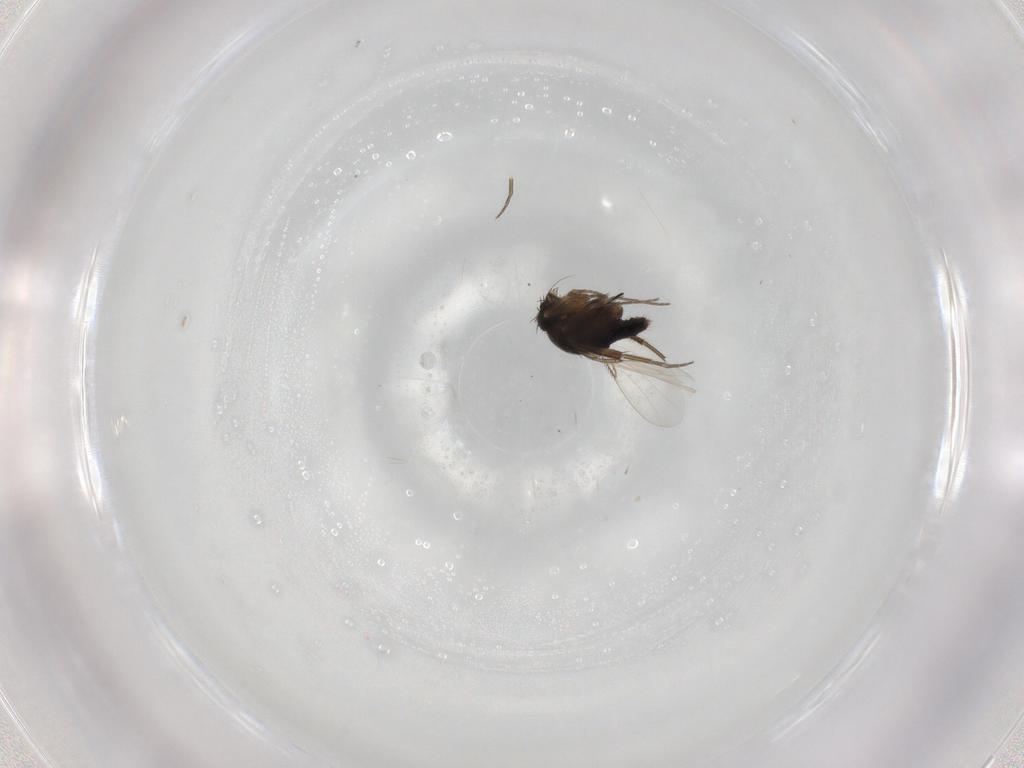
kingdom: Animalia
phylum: Arthropoda
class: Insecta
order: Diptera
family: Phoridae
